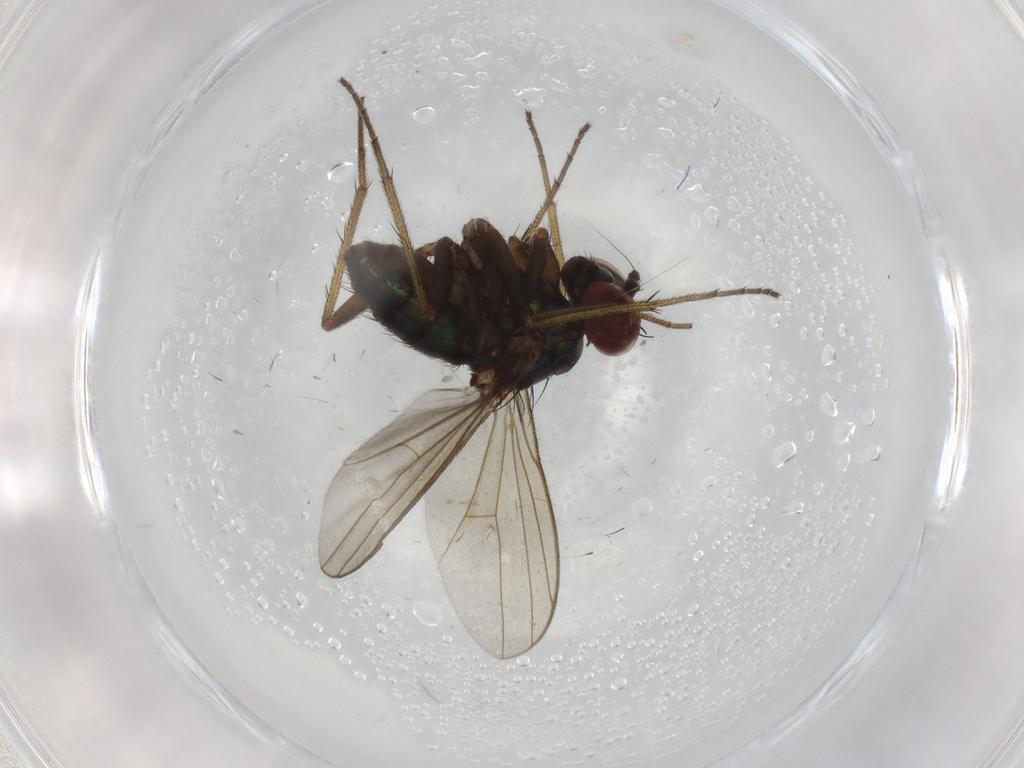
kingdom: Animalia
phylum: Arthropoda
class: Insecta
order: Diptera
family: Dolichopodidae
